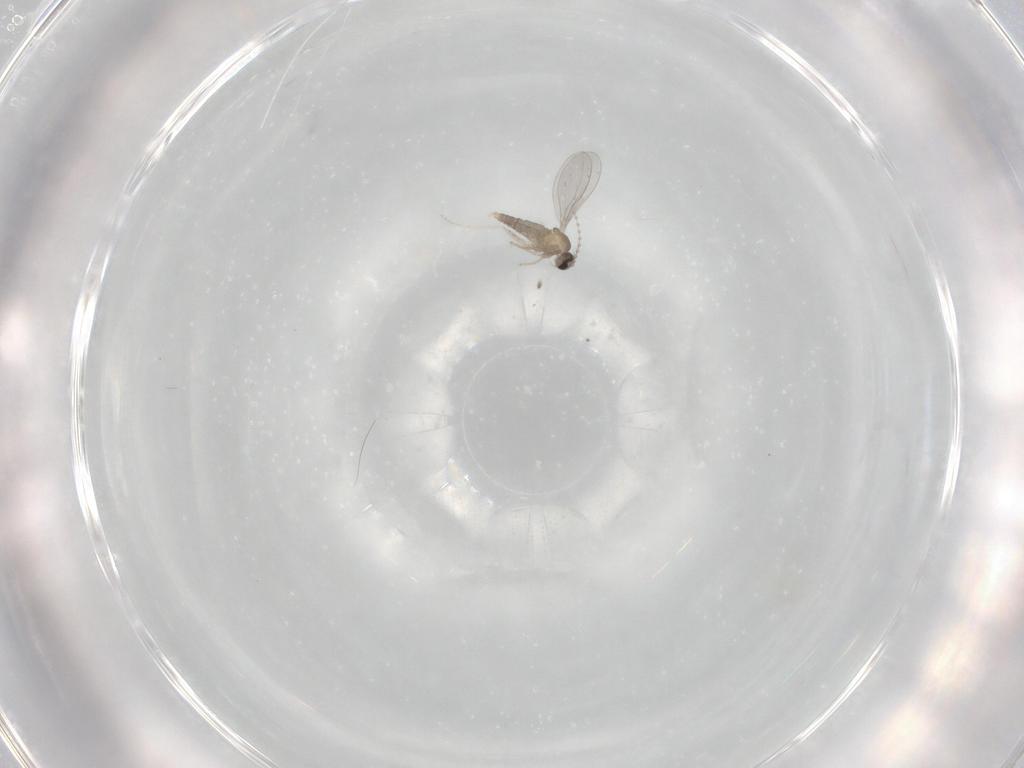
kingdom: Animalia
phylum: Arthropoda
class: Insecta
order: Diptera
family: Cecidomyiidae
